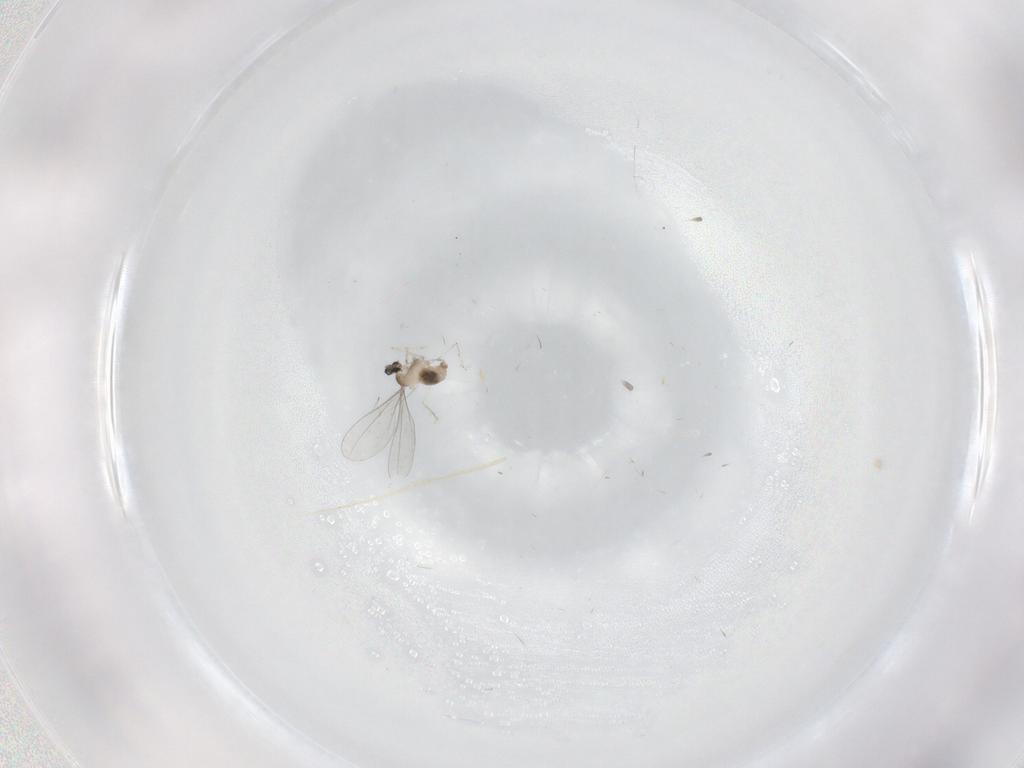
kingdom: Animalia
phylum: Arthropoda
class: Insecta
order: Diptera
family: Cecidomyiidae
